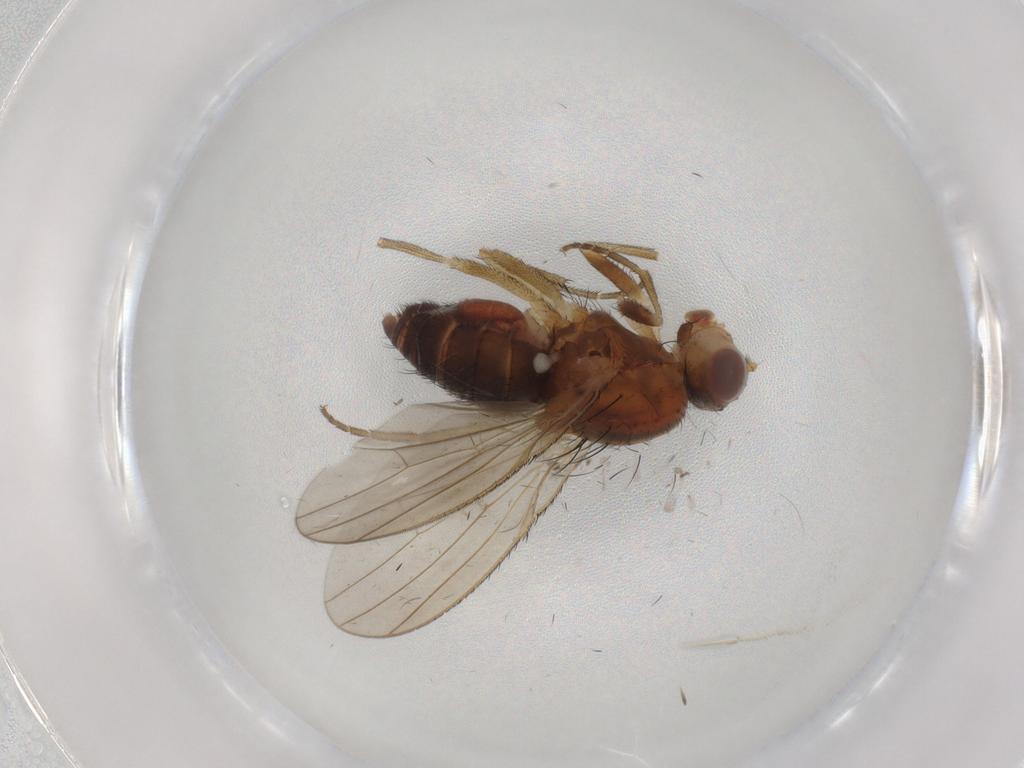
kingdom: Animalia
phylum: Arthropoda
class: Insecta
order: Diptera
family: Heleomyzidae
